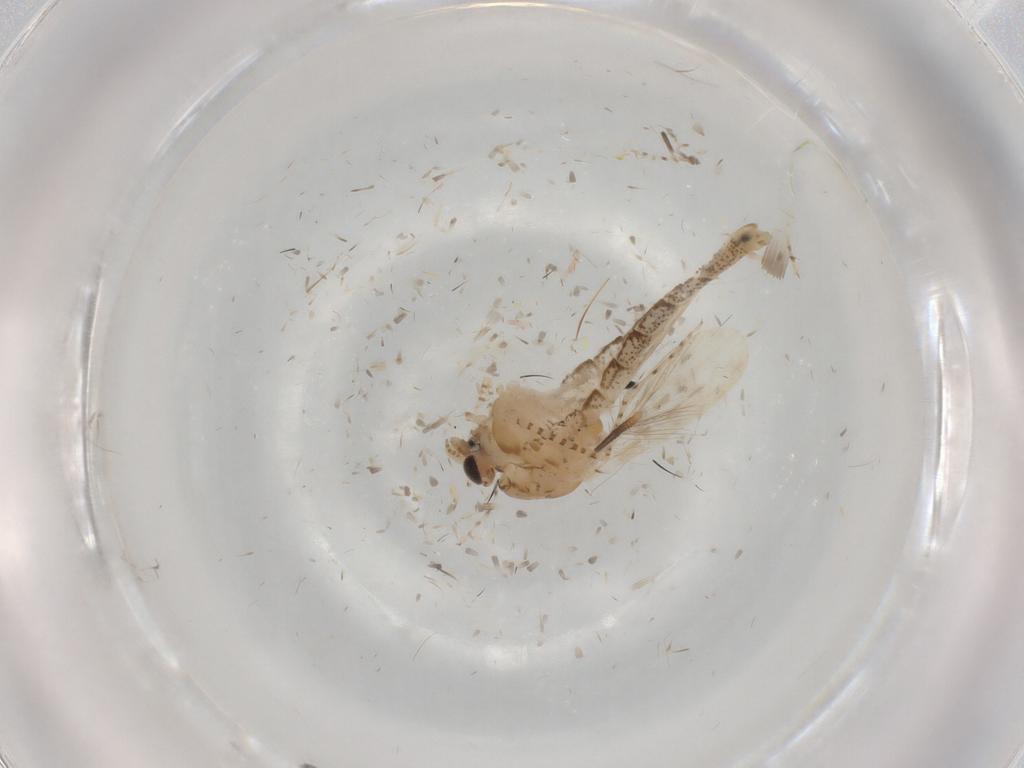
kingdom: Animalia
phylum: Arthropoda
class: Insecta
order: Diptera
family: Chaoboridae
